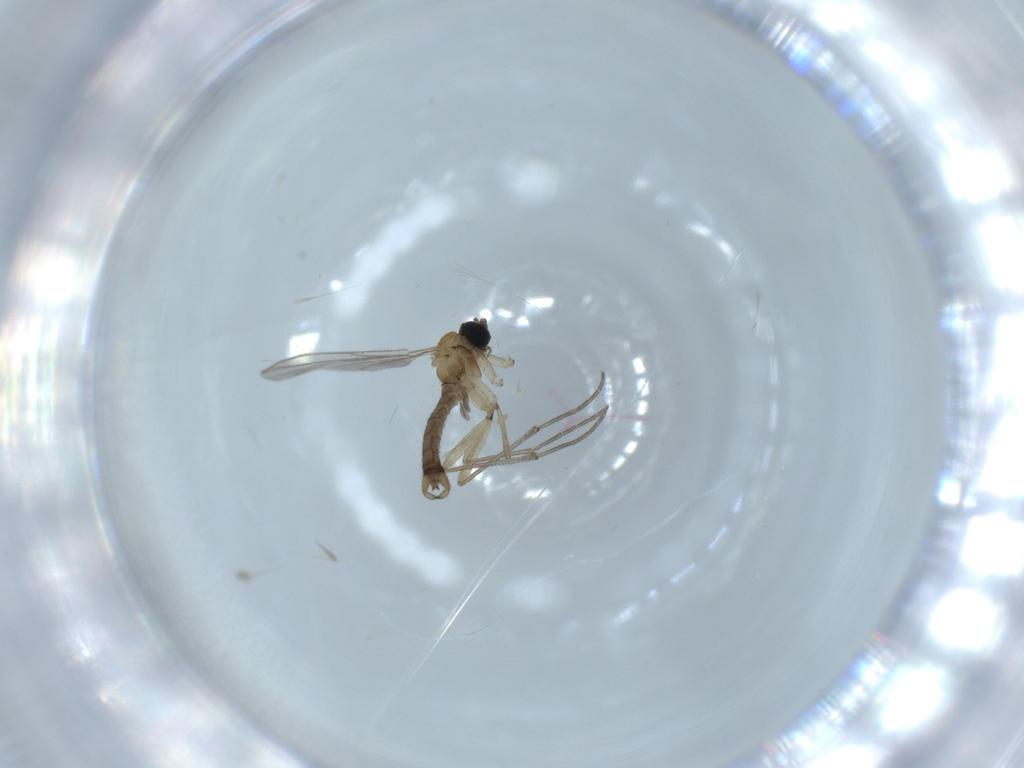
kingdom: Animalia
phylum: Arthropoda
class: Insecta
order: Diptera
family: Sciaridae
